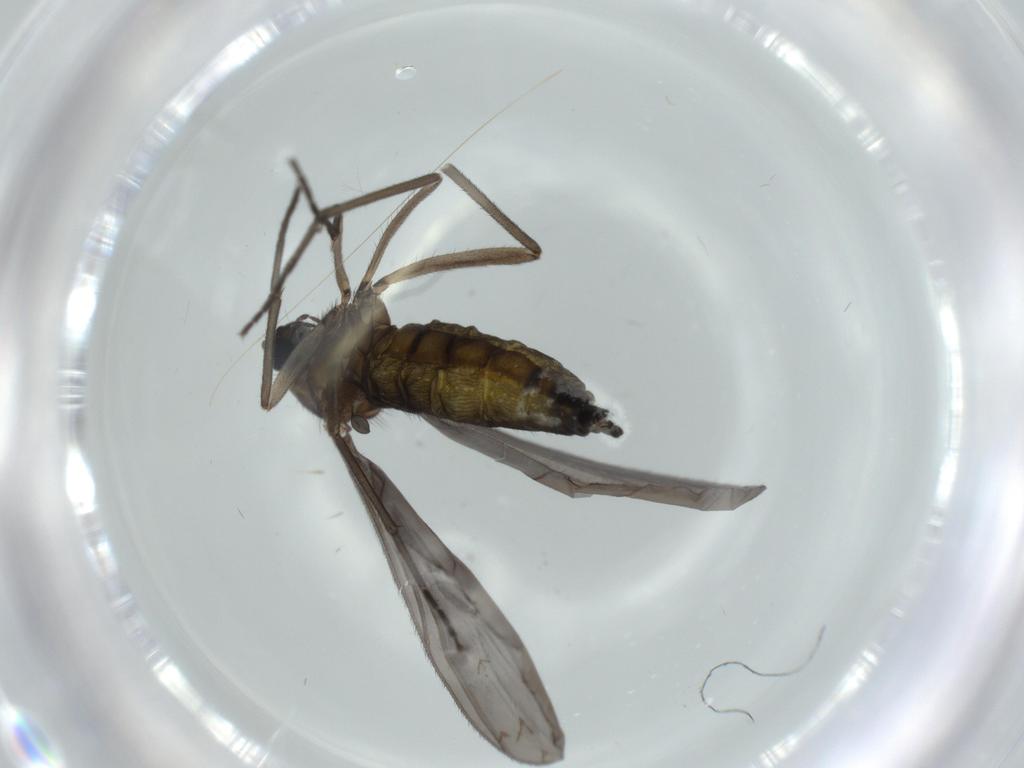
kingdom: Animalia
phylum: Arthropoda
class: Insecta
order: Diptera
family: Sciaridae
